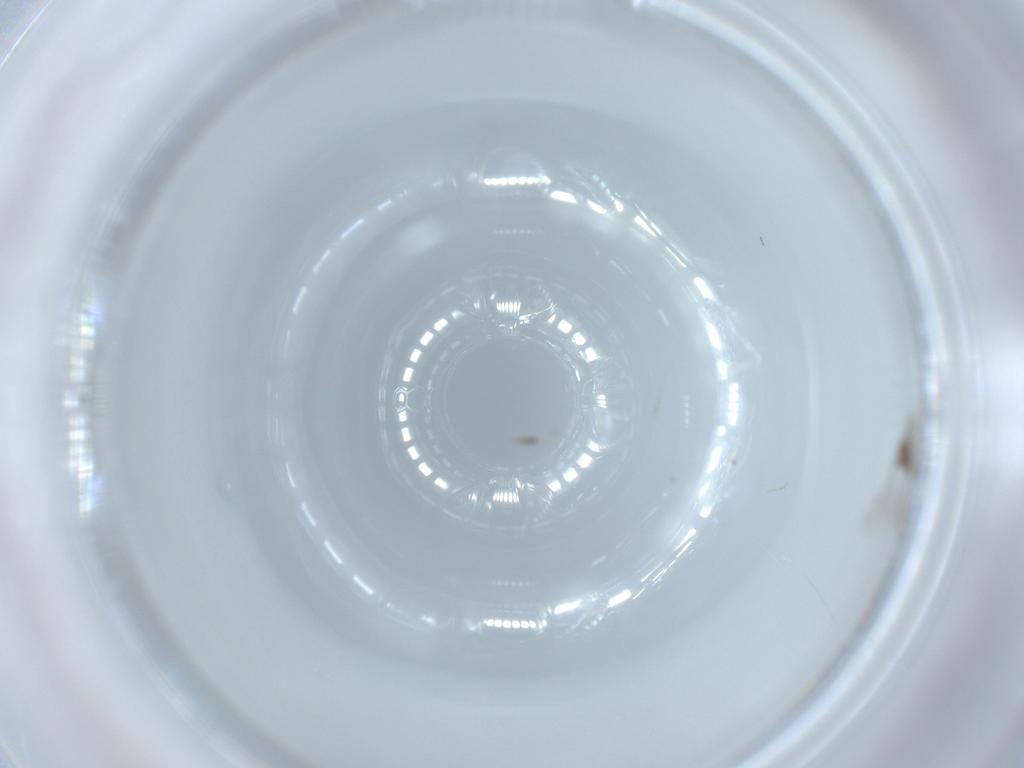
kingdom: Animalia
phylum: Arthropoda
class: Insecta
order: Diptera
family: Cecidomyiidae
